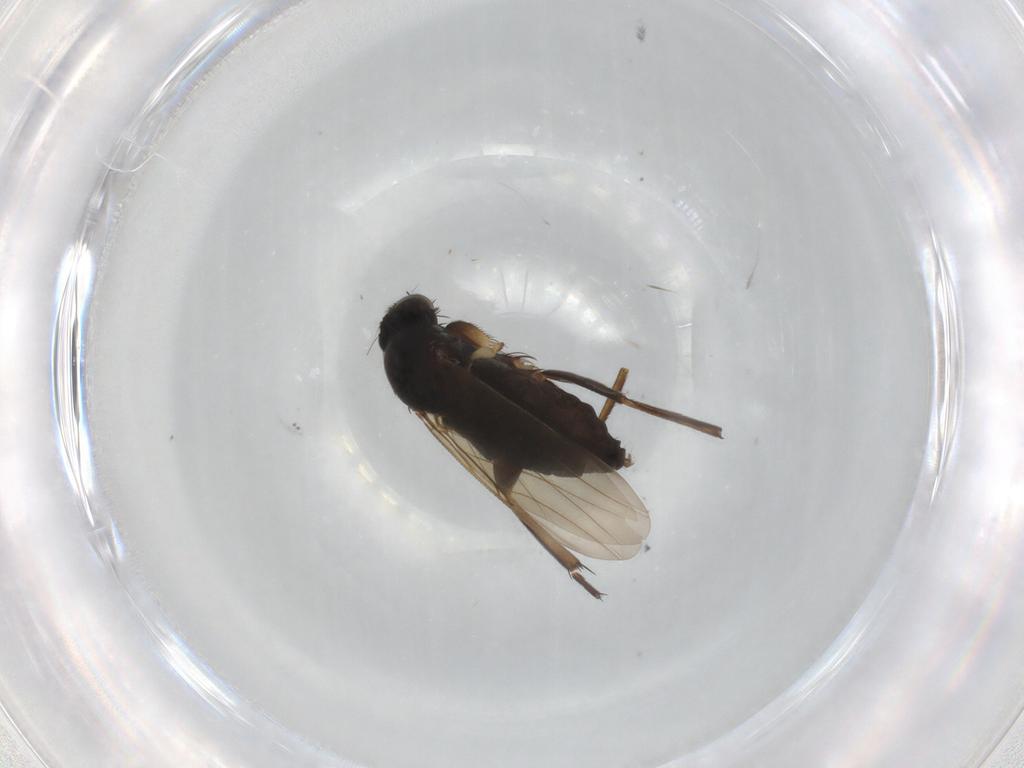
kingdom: Animalia
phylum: Arthropoda
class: Insecta
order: Diptera
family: Phoridae
